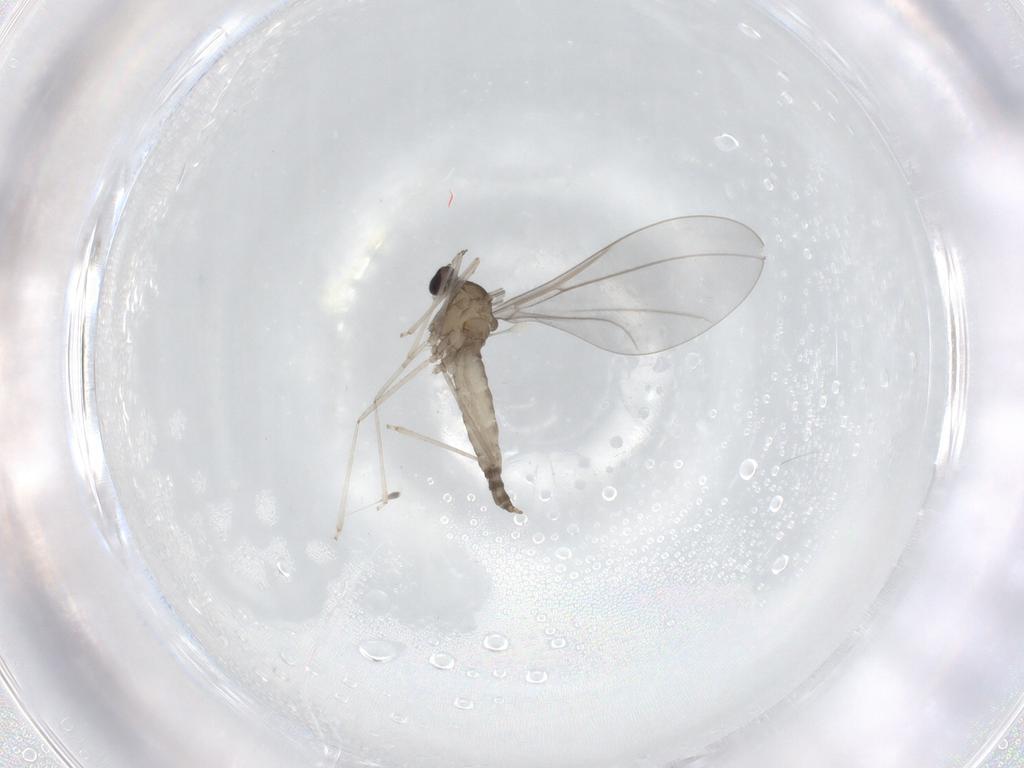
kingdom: Animalia
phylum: Arthropoda
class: Insecta
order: Diptera
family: Cecidomyiidae
